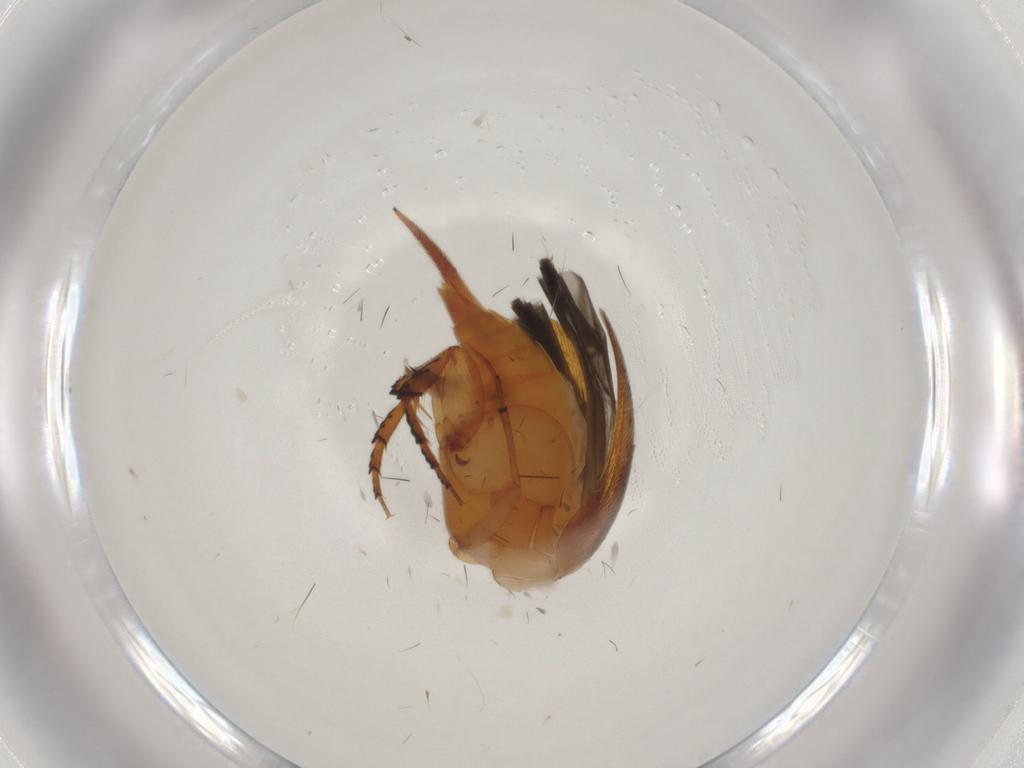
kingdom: Animalia
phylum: Arthropoda
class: Insecta
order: Coleoptera
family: Mordellidae
